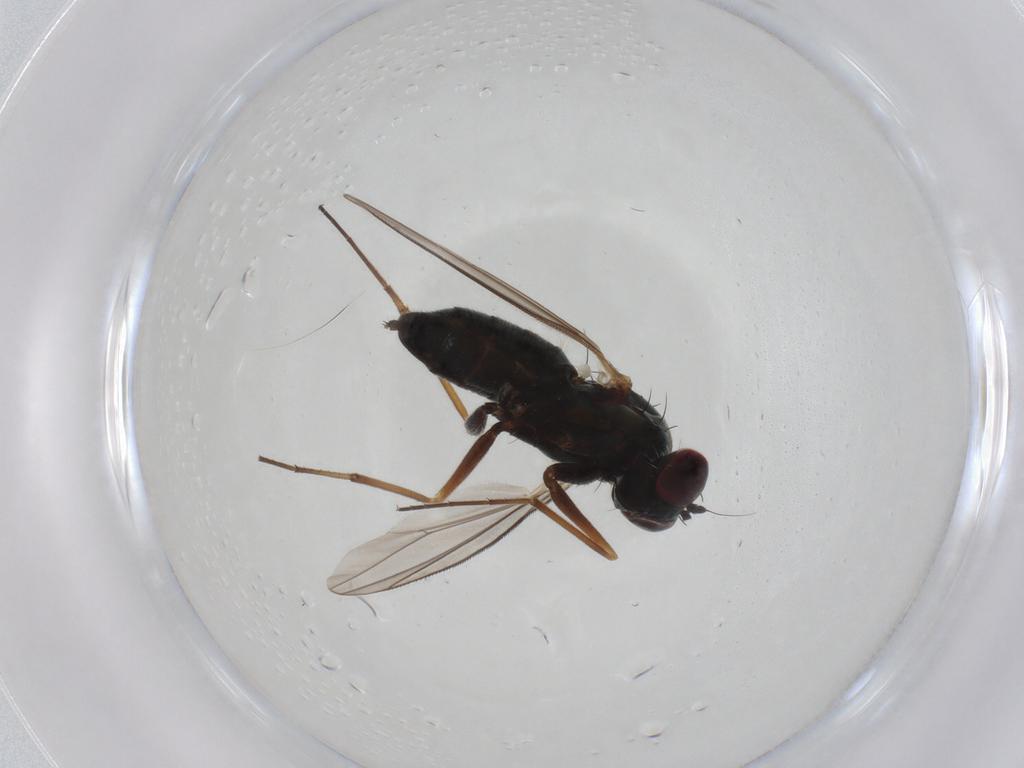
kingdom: Animalia
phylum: Arthropoda
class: Insecta
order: Diptera
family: Dolichopodidae
